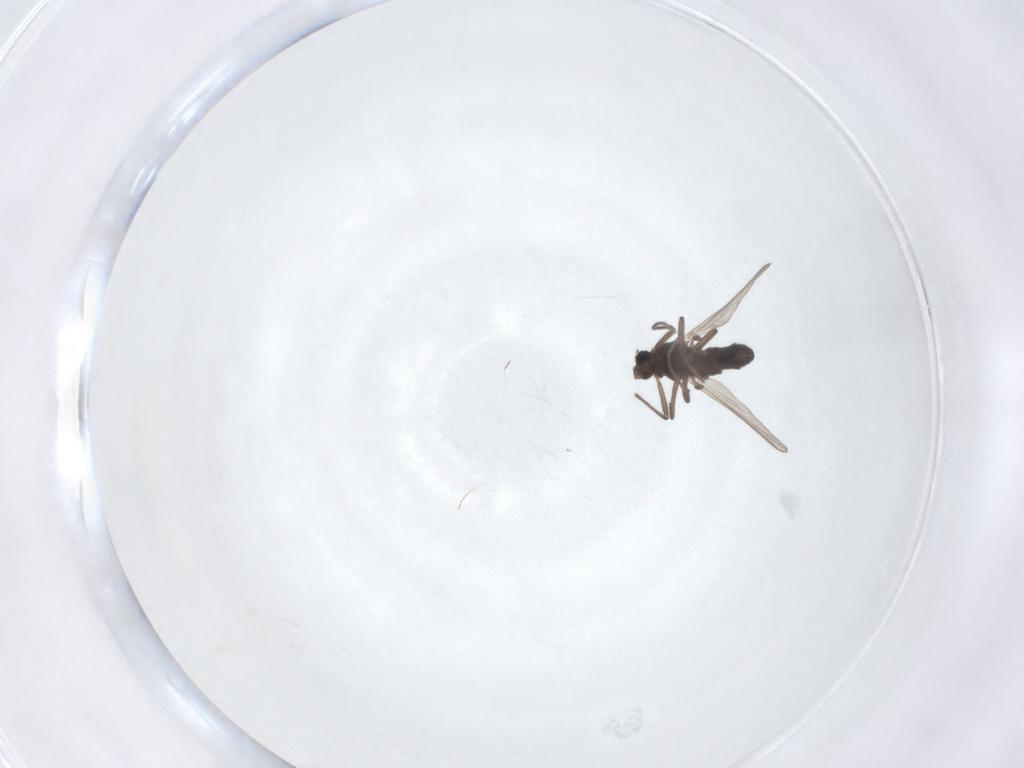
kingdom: Animalia
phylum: Arthropoda
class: Insecta
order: Diptera
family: Chironomidae
